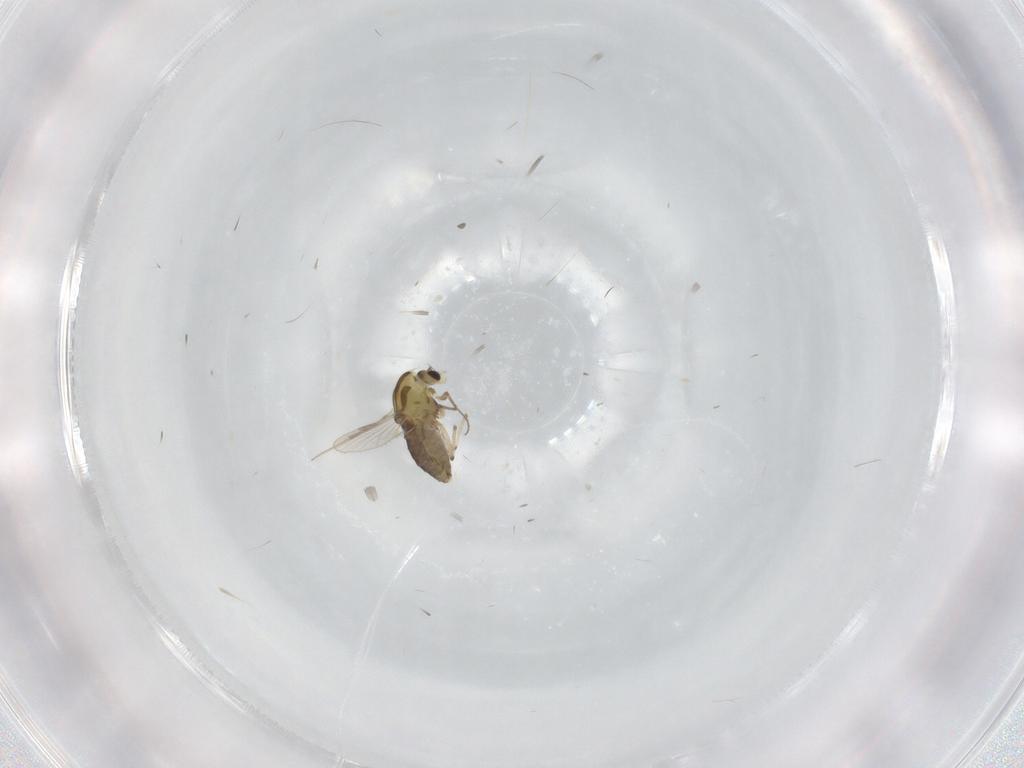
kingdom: Animalia
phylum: Arthropoda
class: Insecta
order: Diptera
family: Chironomidae
